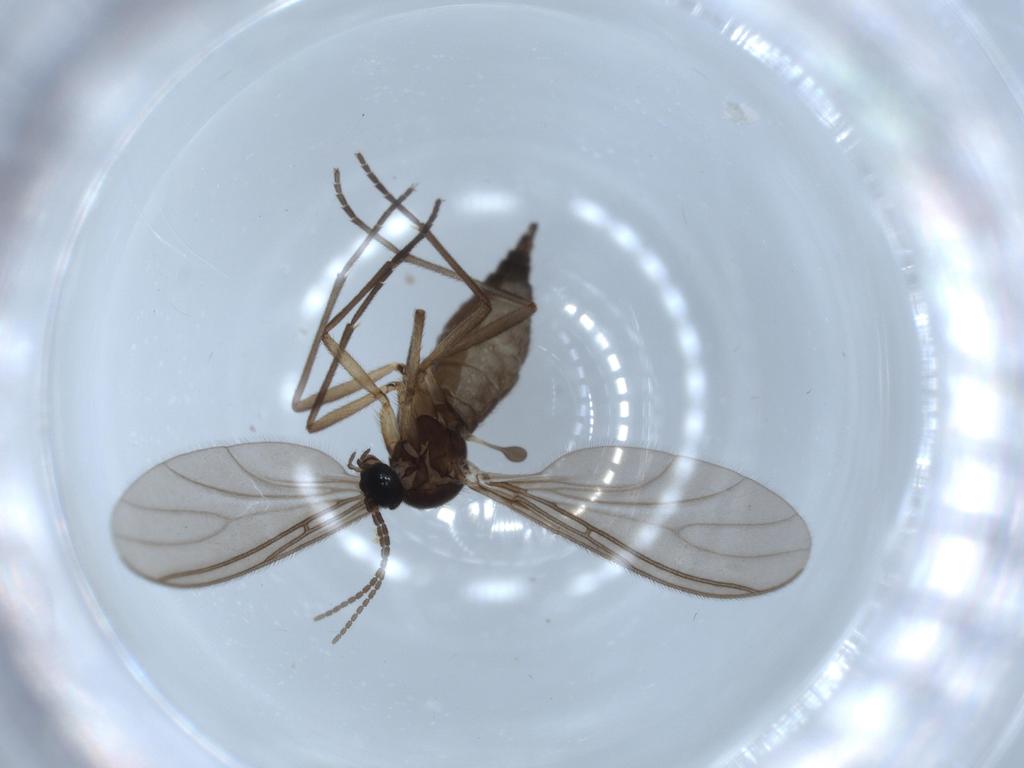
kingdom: Animalia
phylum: Arthropoda
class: Insecta
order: Diptera
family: Sciaridae
